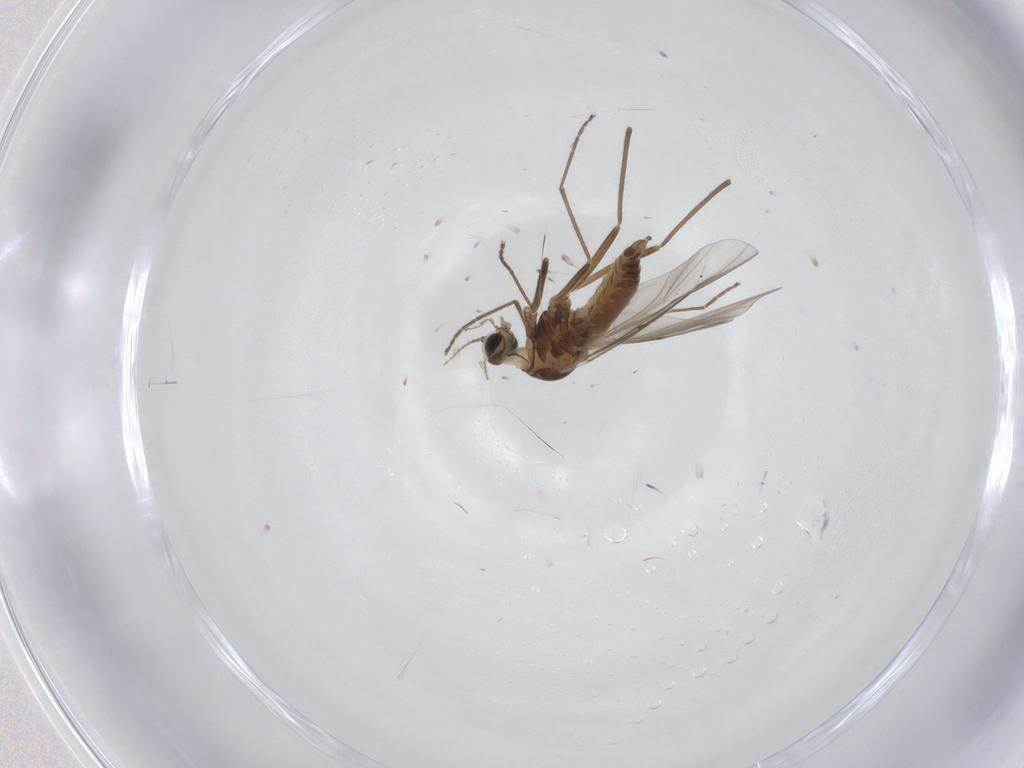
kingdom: Animalia
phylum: Arthropoda
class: Insecta
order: Diptera
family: Cecidomyiidae
